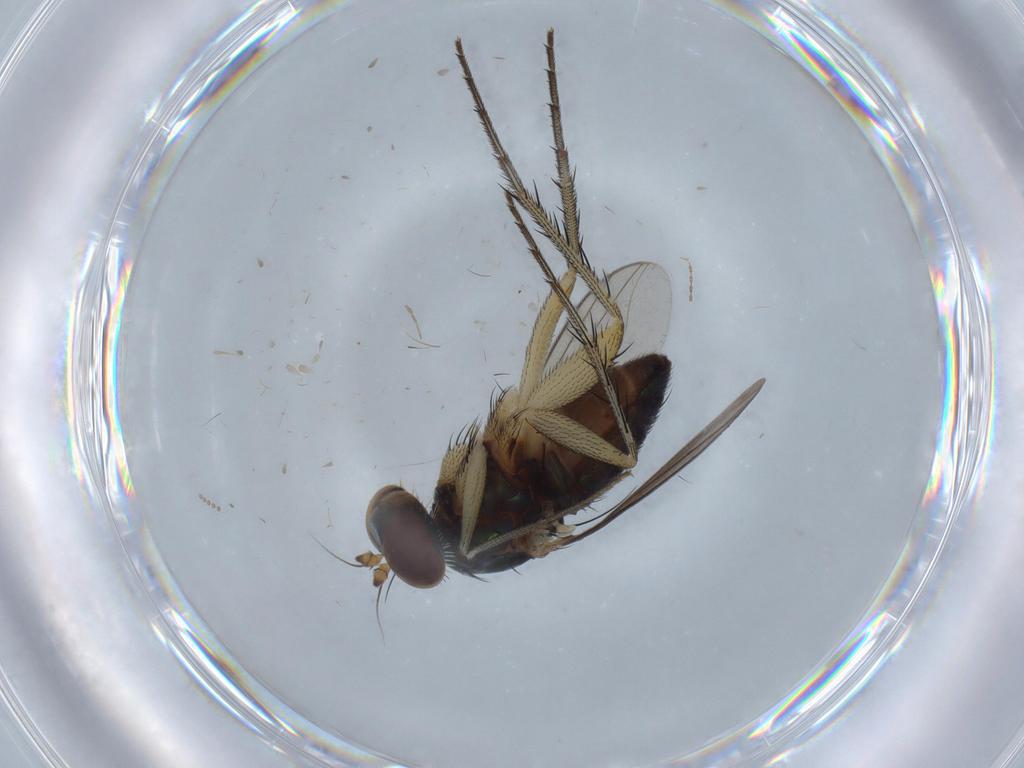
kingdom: Animalia
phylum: Arthropoda
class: Insecta
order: Diptera
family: Dolichopodidae
